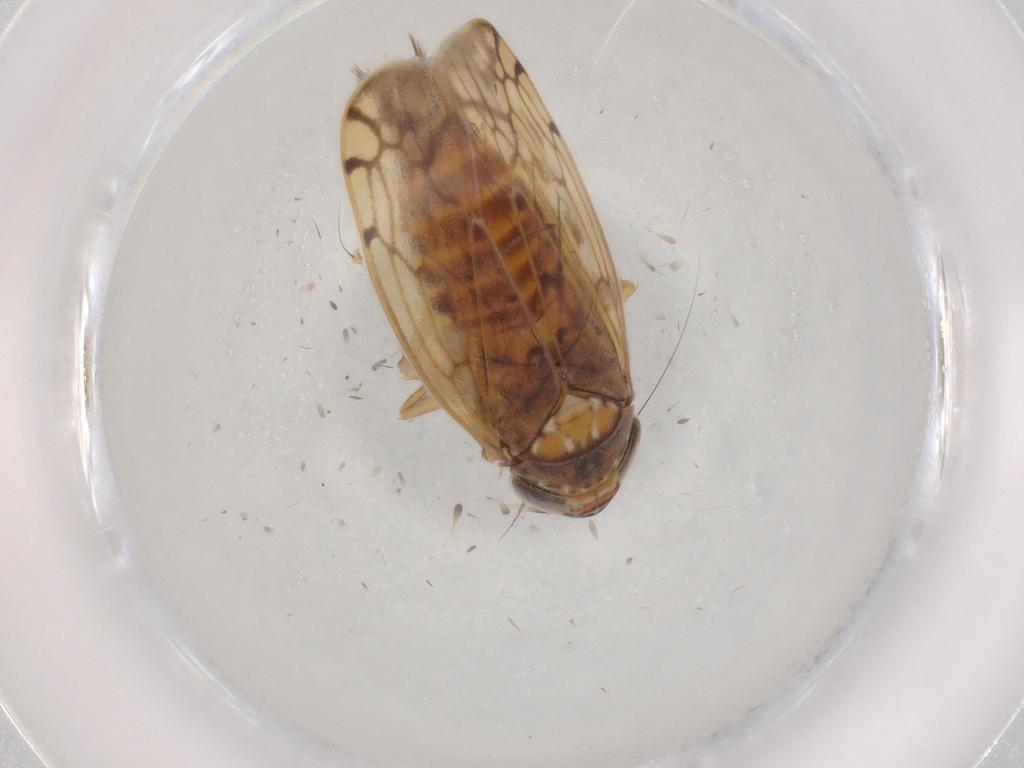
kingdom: Animalia
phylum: Arthropoda
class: Insecta
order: Hemiptera
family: Cicadellidae
